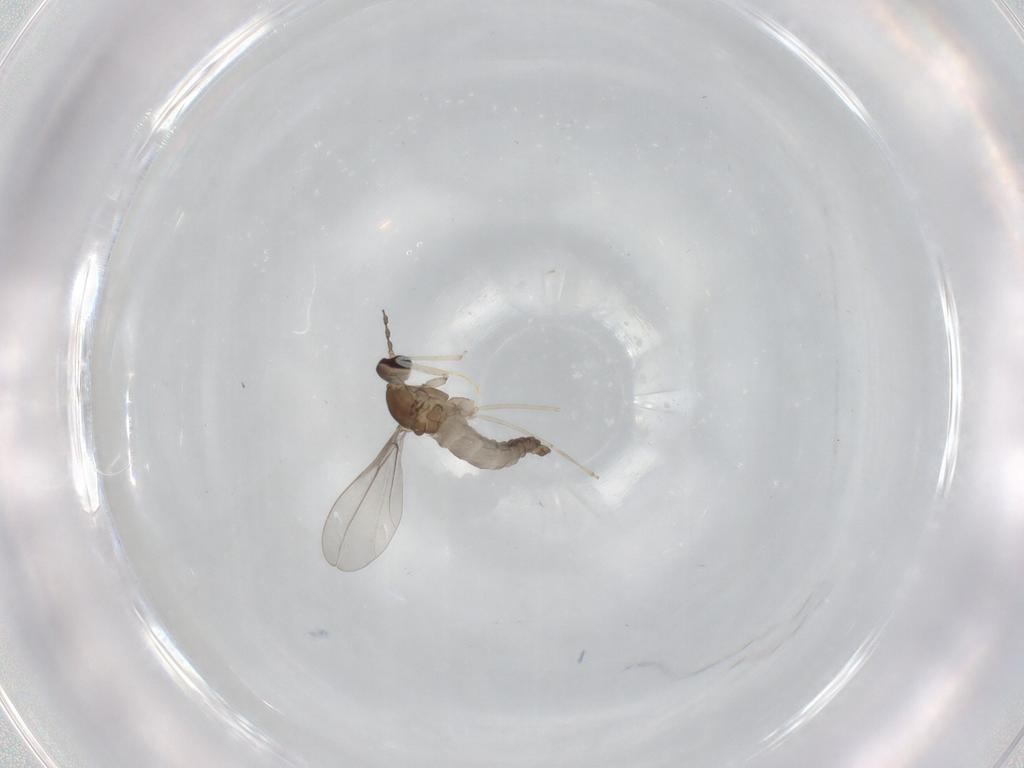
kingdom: Animalia
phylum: Arthropoda
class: Insecta
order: Diptera
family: Cecidomyiidae
